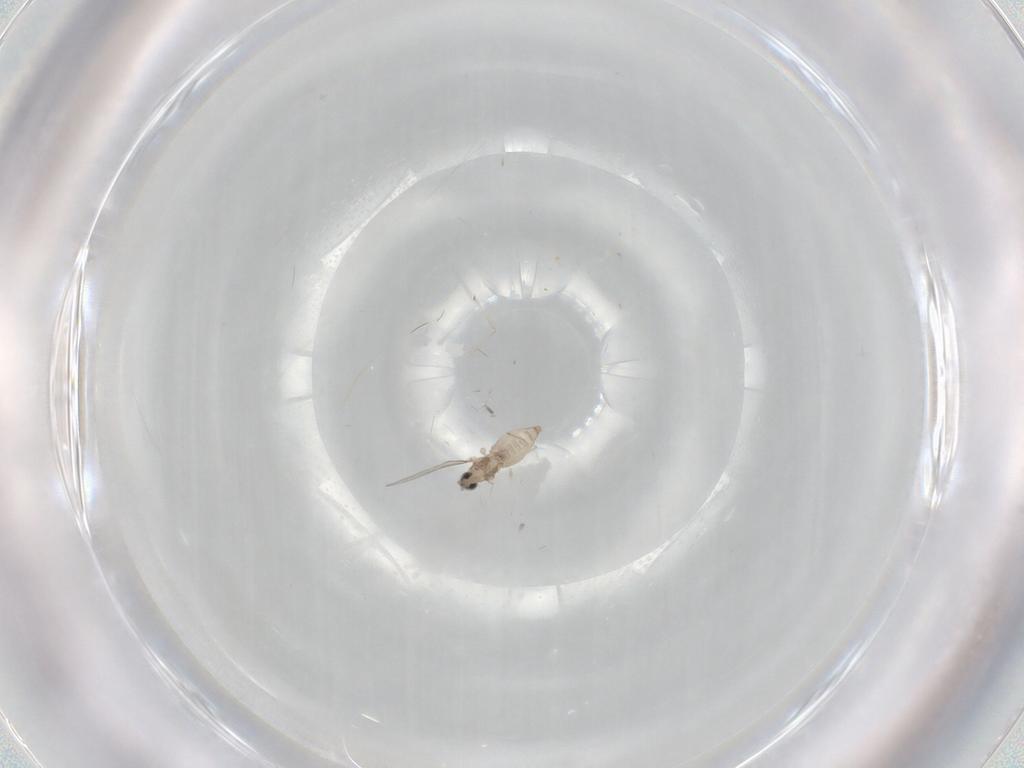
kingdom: Animalia
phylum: Arthropoda
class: Insecta
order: Diptera
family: Cecidomyiidae
